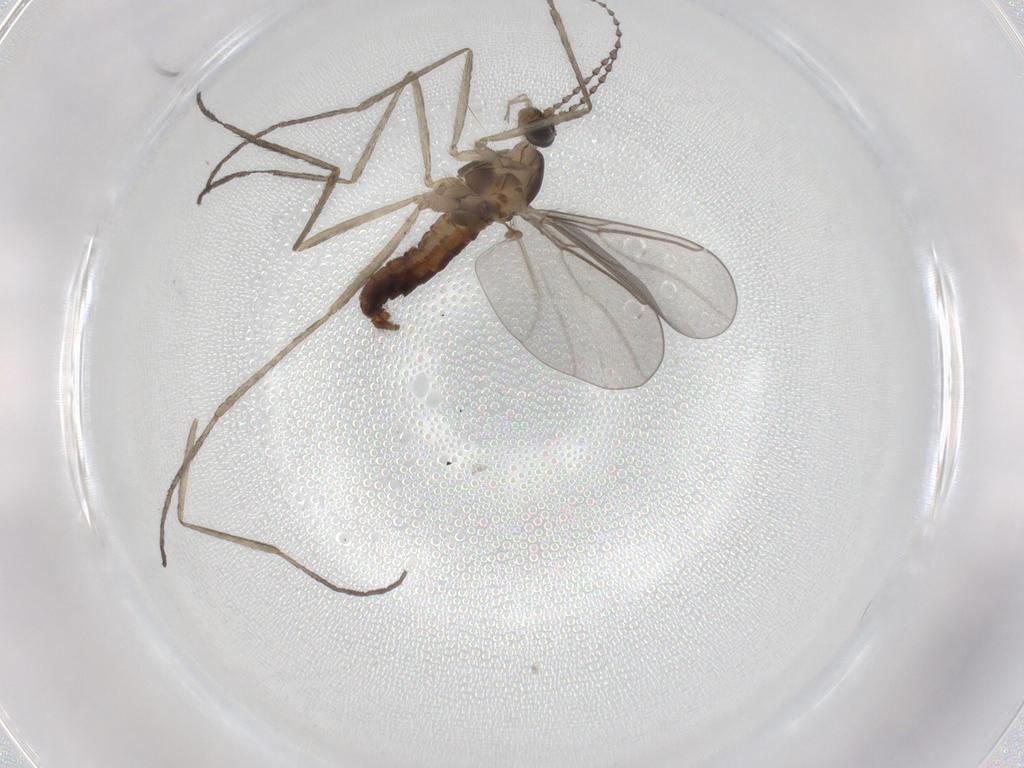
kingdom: Animalia
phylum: Arthropoda
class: Insecta
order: Diptera
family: Cecidomyiidae
